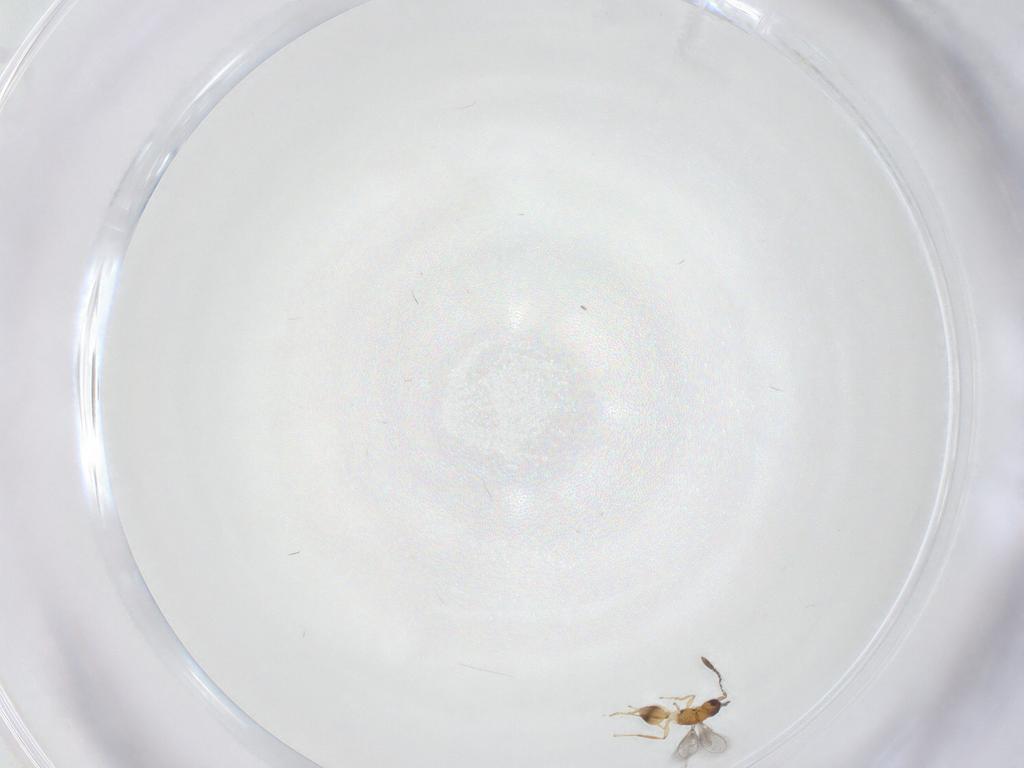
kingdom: Animalia
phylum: Arthropoda
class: Insecta
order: Hymenoptera
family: Mymaridae
